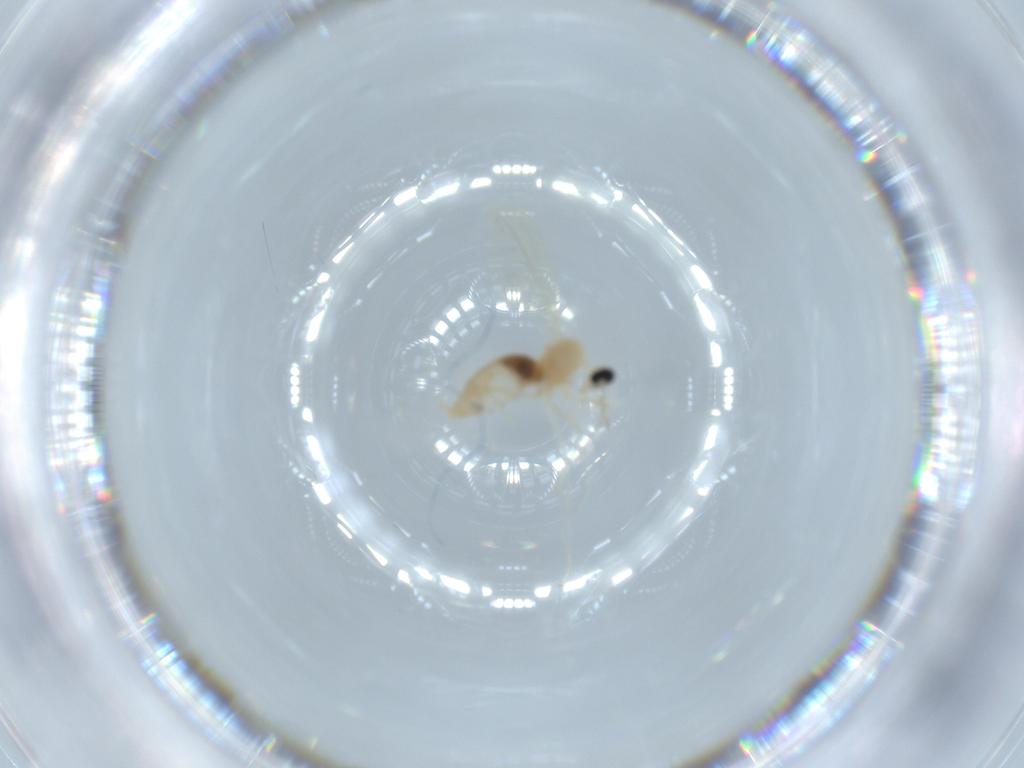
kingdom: Animalia
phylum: Arthropoda
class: Insecta
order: Diptera
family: Cecidomyiidae
